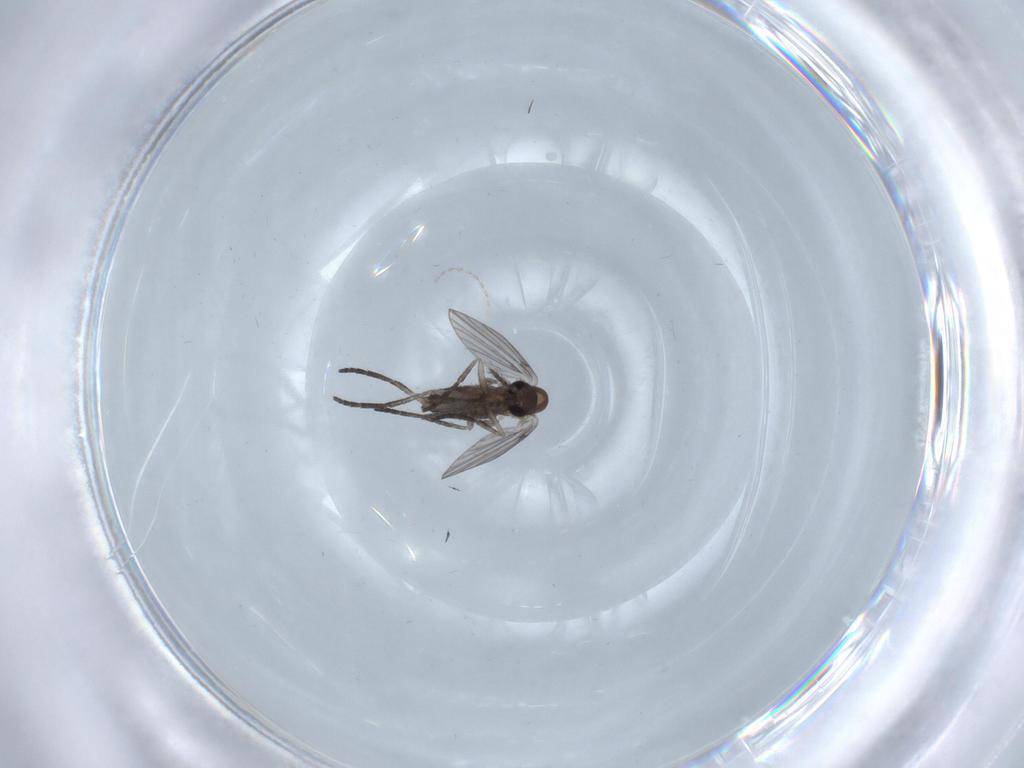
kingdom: Animalia
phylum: Arthropoda
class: Insecta
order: Diptera
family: Cecidomyiidae
